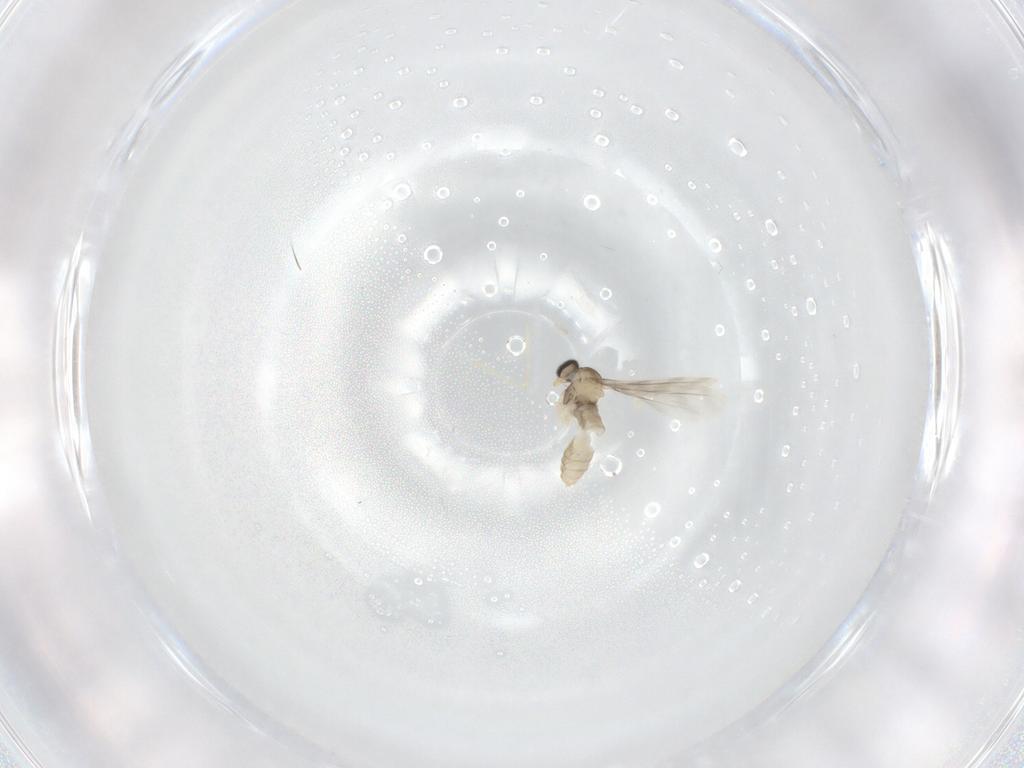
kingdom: Animalia
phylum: Arthropoda
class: Insecta
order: Diptera
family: Cecidomyiidae
